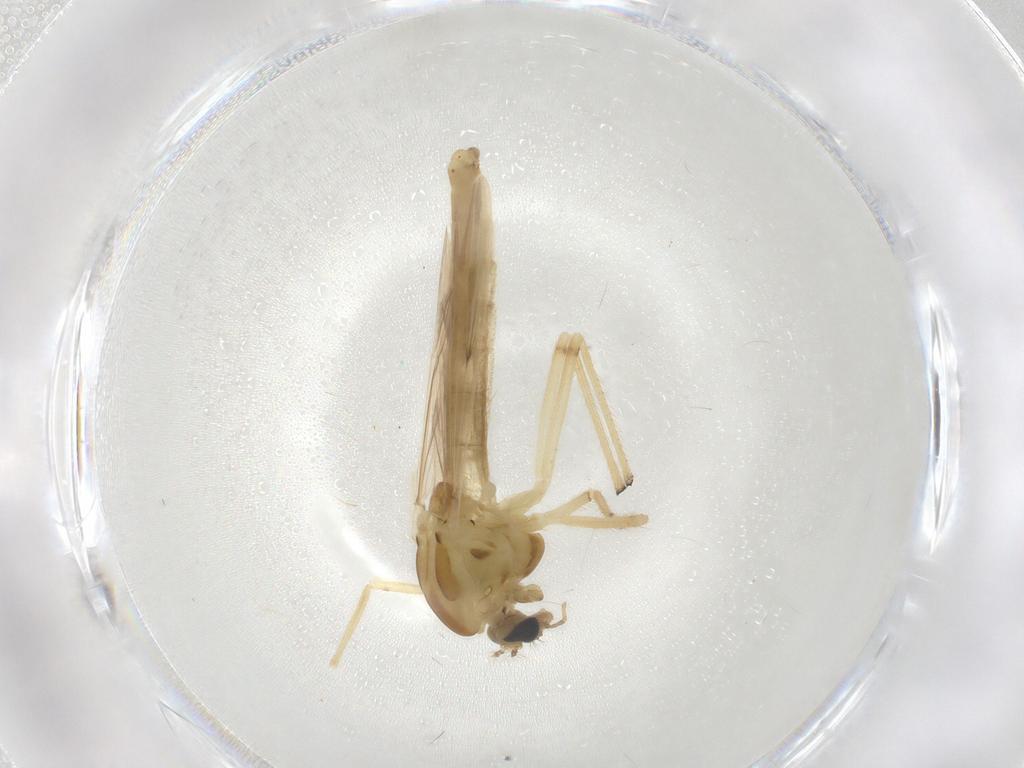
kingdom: Animalia
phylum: Arthropoda
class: Insecta
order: Diptera
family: Chironomidae
